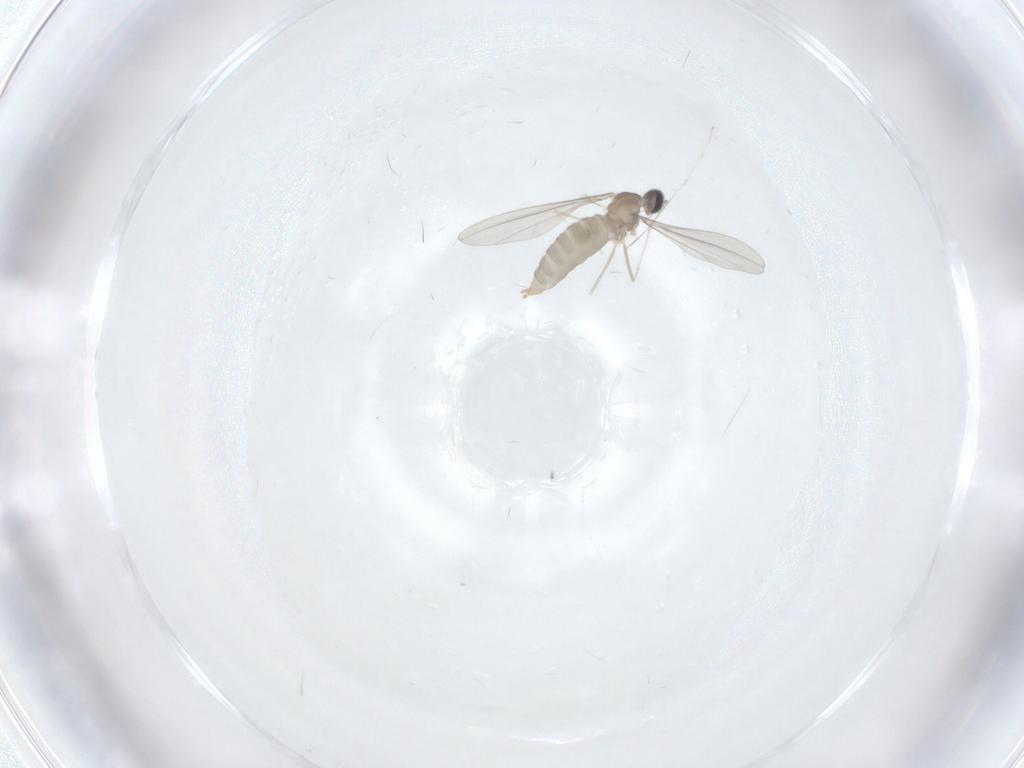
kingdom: Animalia
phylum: Arthropoda
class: Insecta
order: Diptera
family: Ceratopogonidae
